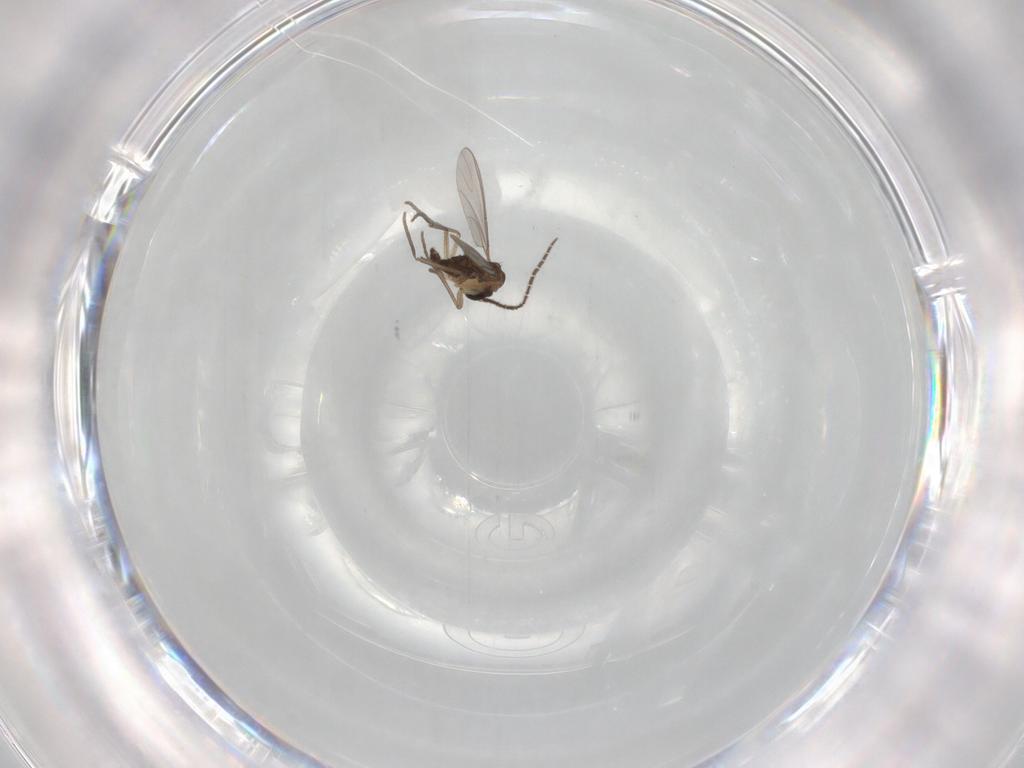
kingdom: Animalia
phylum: Arthropoda
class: Insecta
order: Diptera
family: Sciaridae
